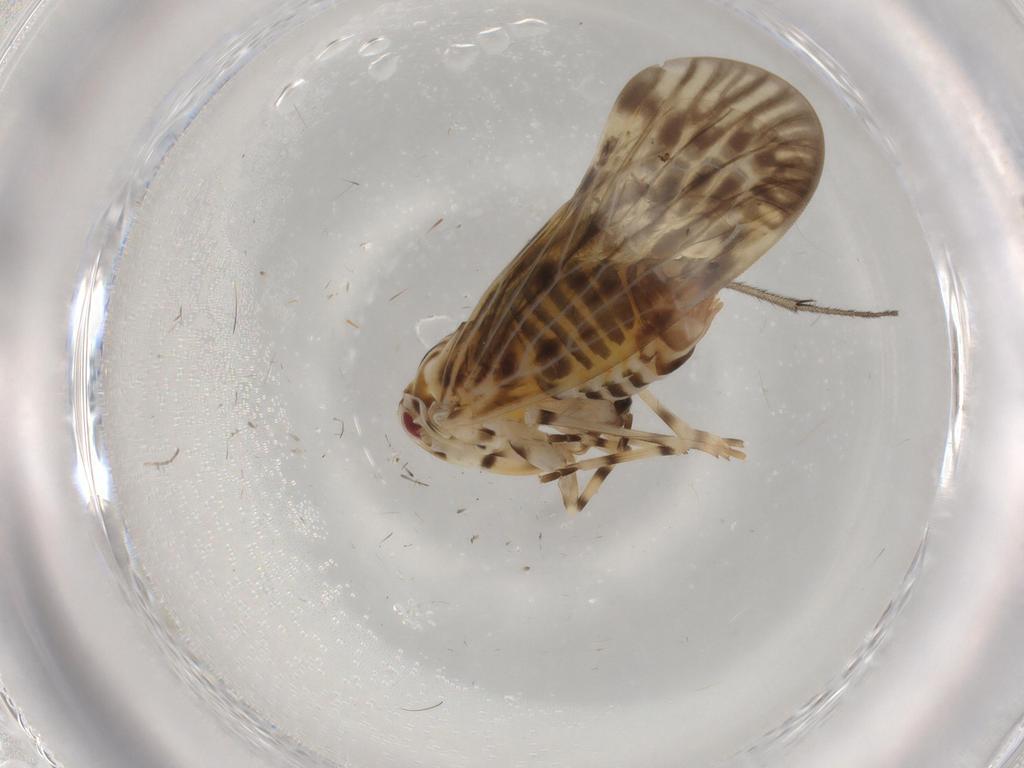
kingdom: Animalia
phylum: Arthropoda
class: Insecta
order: Hemiptera
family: Derbidae
